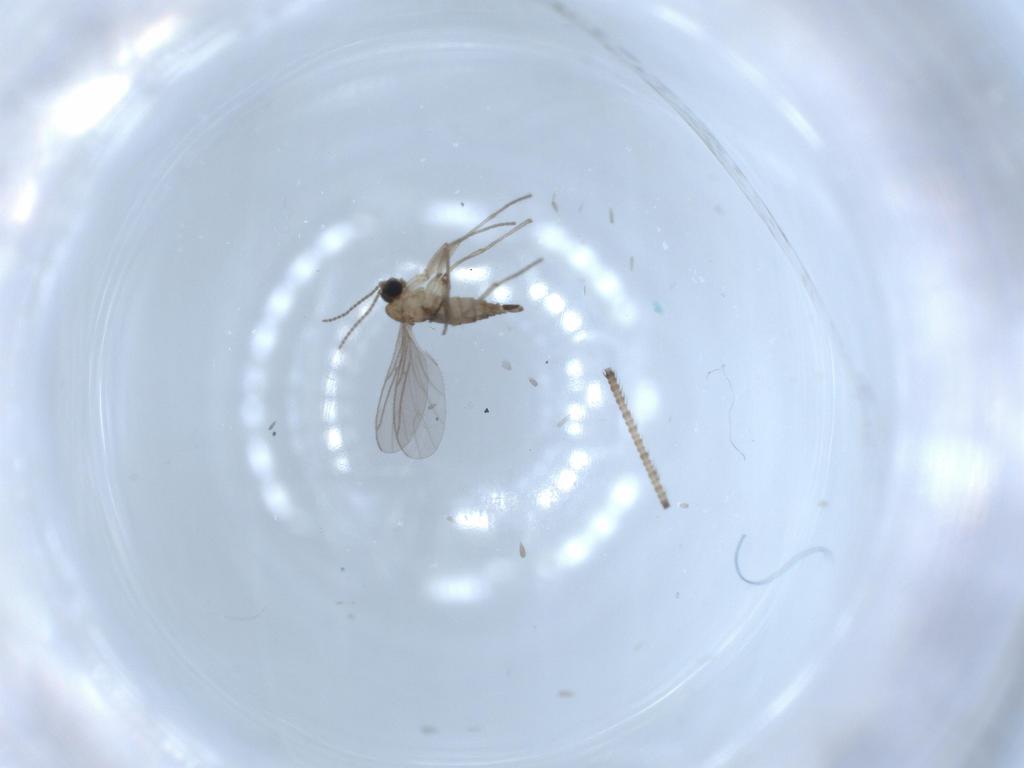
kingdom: Animalia
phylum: Arthropoda
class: Insecta
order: Diptera
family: Sciaridae
